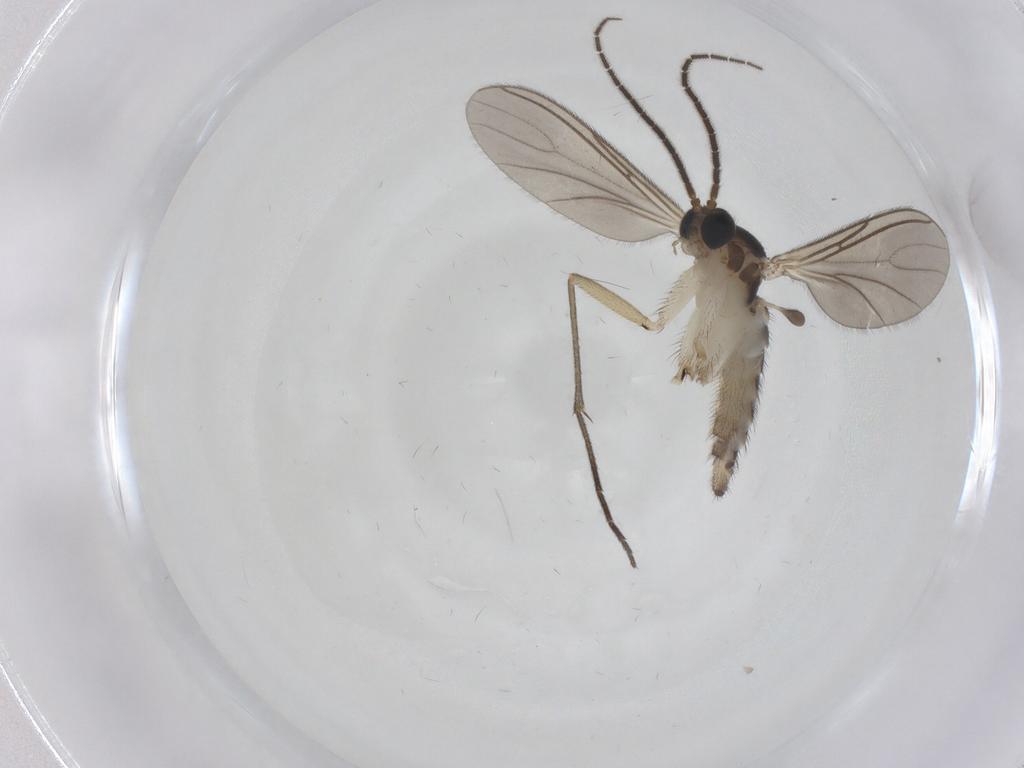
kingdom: Animalia
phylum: Arthropoda
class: Insecta
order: Diptera
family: Sciaridae
